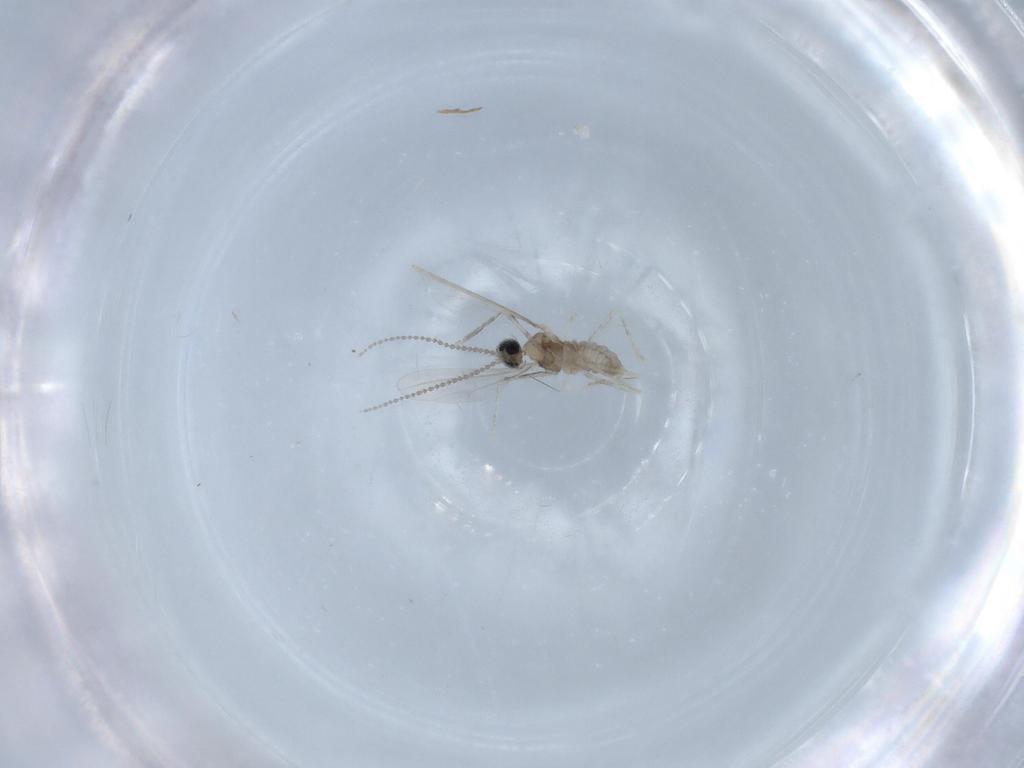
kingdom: Animalia
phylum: Arthropoda
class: Insecta
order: Diptera
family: Cecidomyiidae
